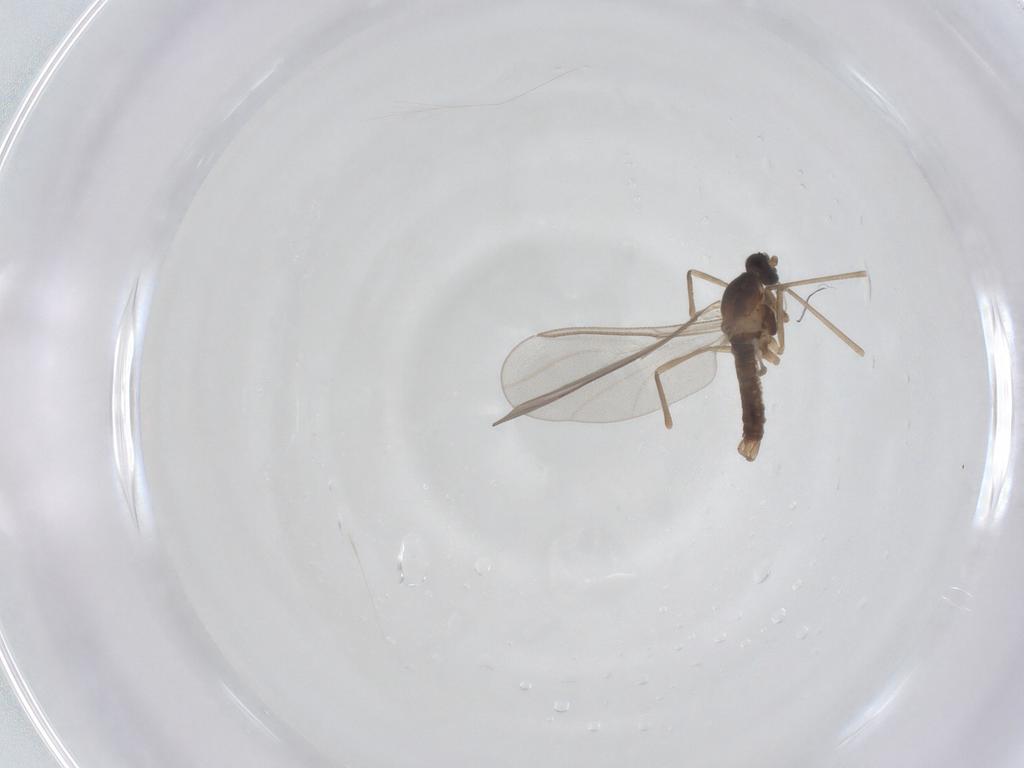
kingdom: Animalia
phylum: Arthropoda
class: Insecta
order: Diptera
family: Cecidomyiidae
